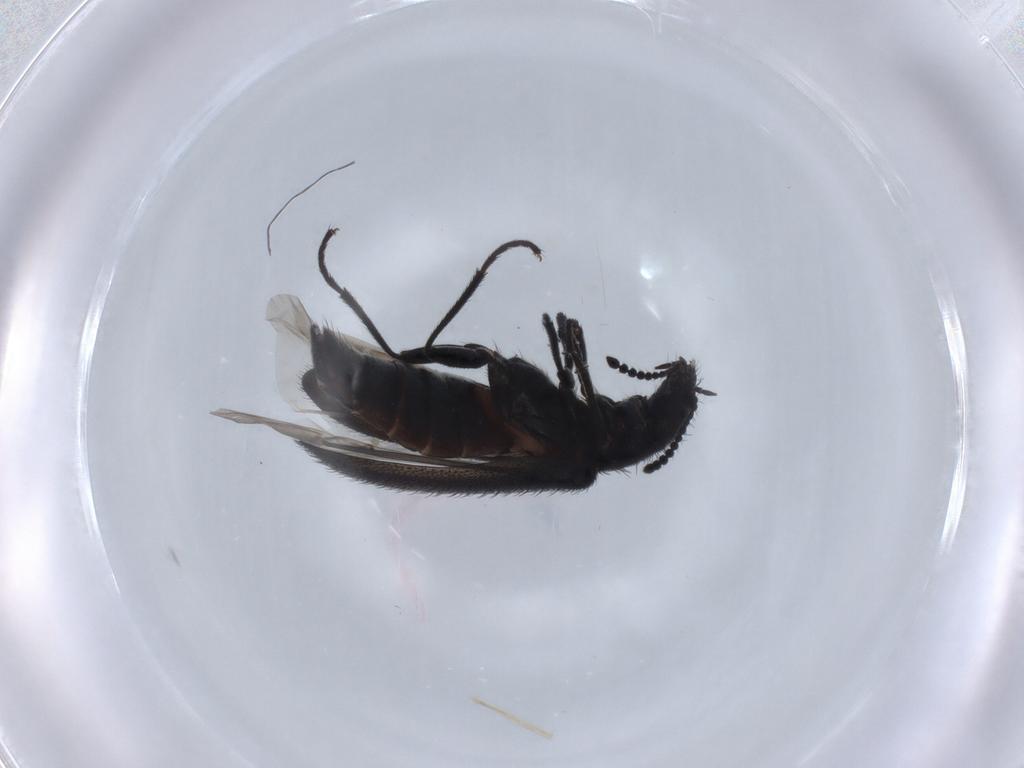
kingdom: Animalia
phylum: Arthropoda
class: Insecta
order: Coleoptera
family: Melyridae
